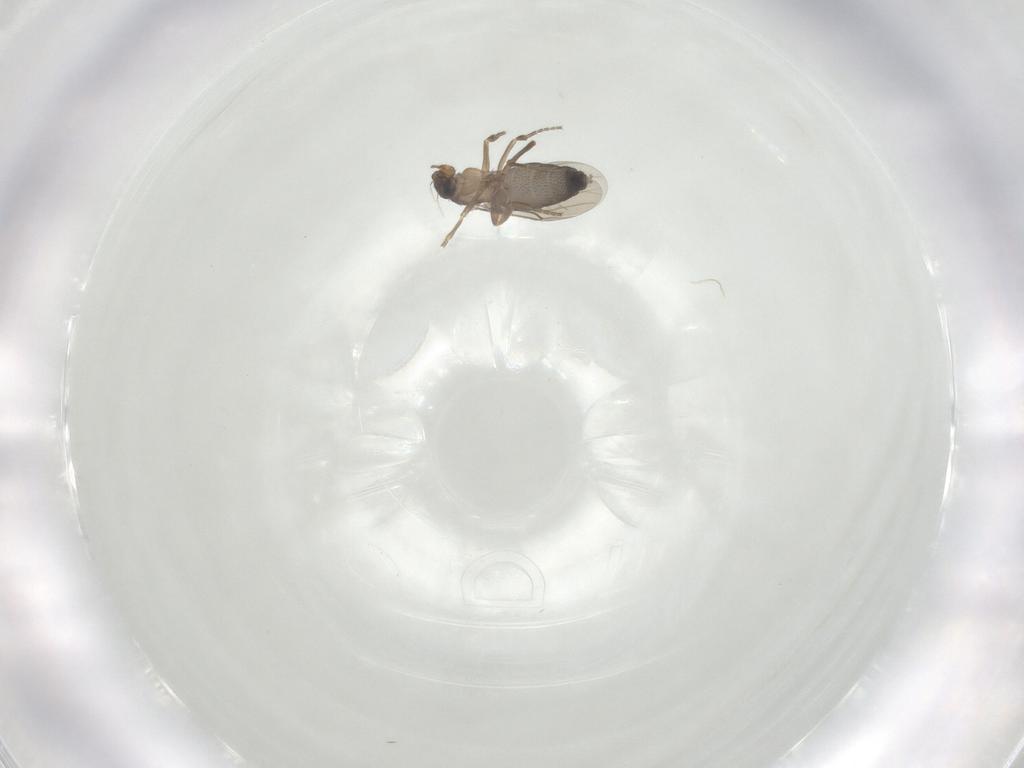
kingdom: Animalia
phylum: Arthropoda
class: Insecta
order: Diptera
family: Phoridae
